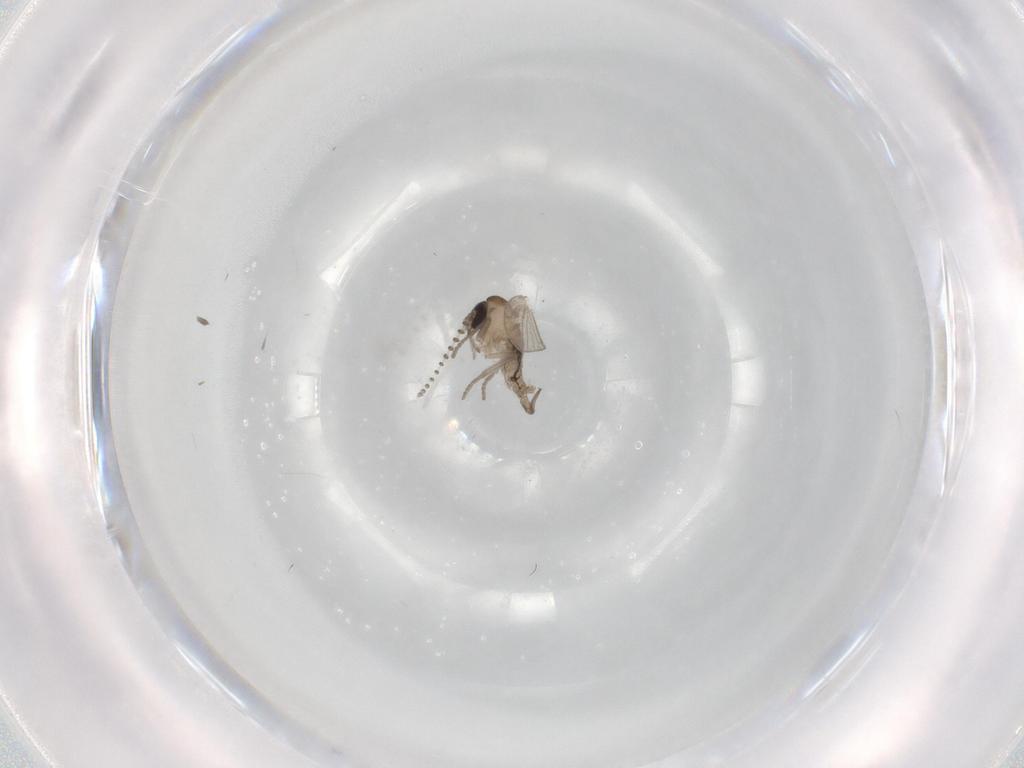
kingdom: Animalia
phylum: Arthropoda
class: Insecta
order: Diptera
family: Psychodidae
